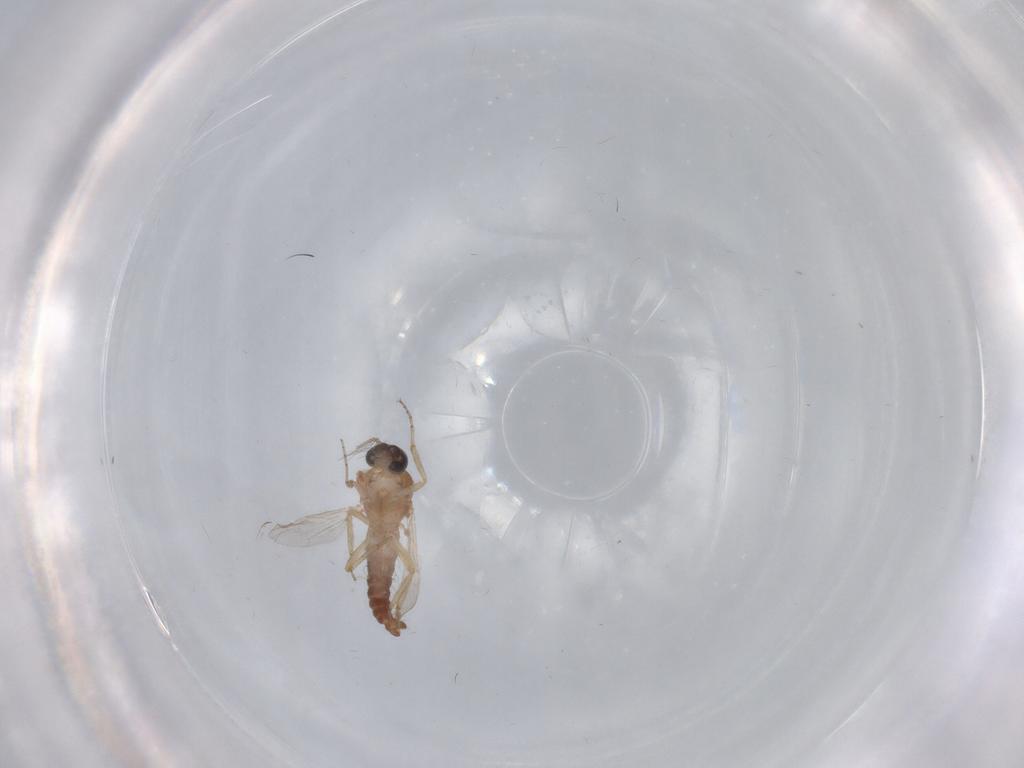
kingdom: Animalia
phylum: Arthropoda
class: Insecta
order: Diptera
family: Ceratopogonidae
